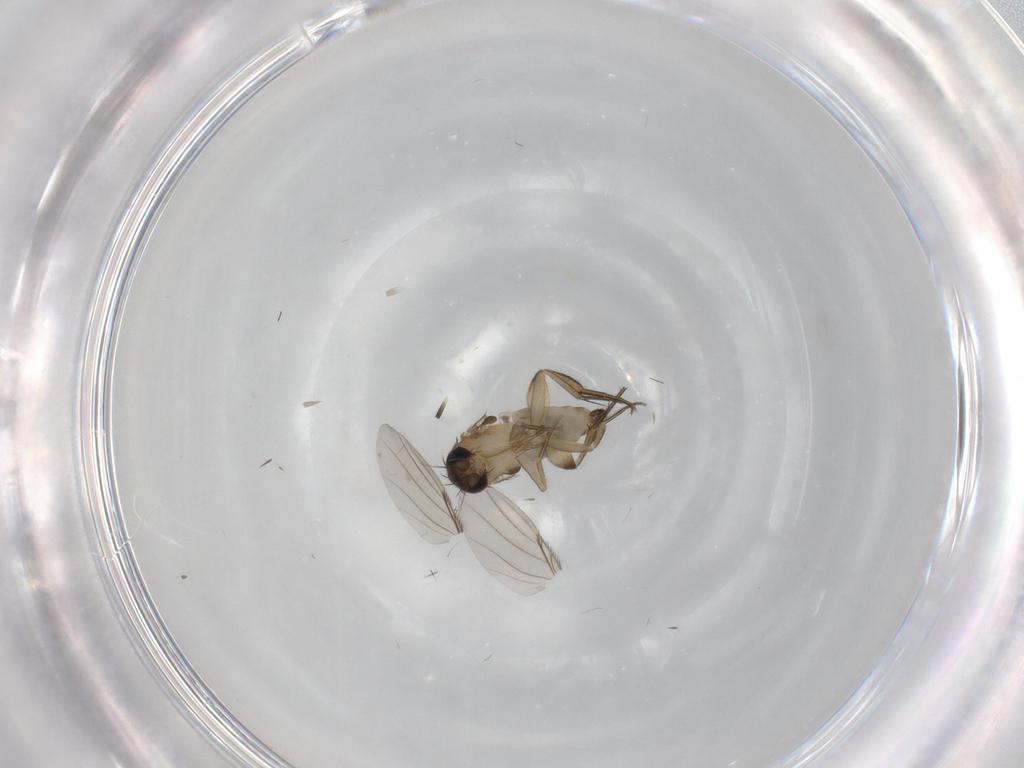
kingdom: Animalia
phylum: Arthropoda
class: Insecta
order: Diptera
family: Phoridae
